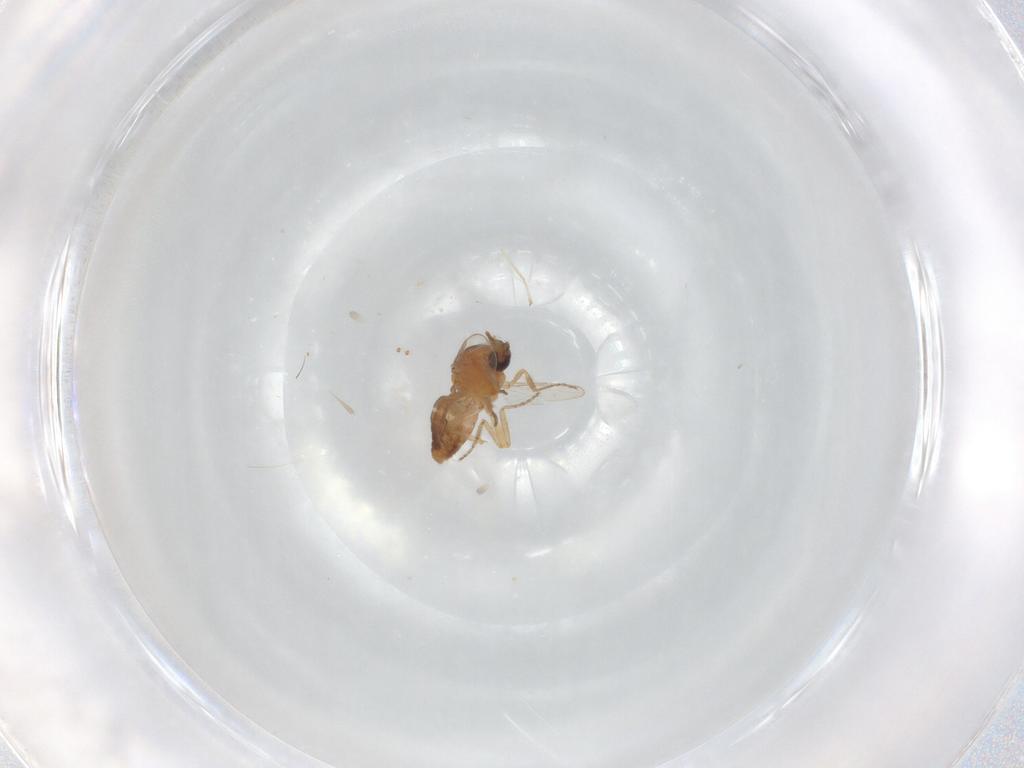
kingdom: Animalia
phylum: Arthropoda
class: Insecta
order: Diptera
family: Ceratopogonidae
